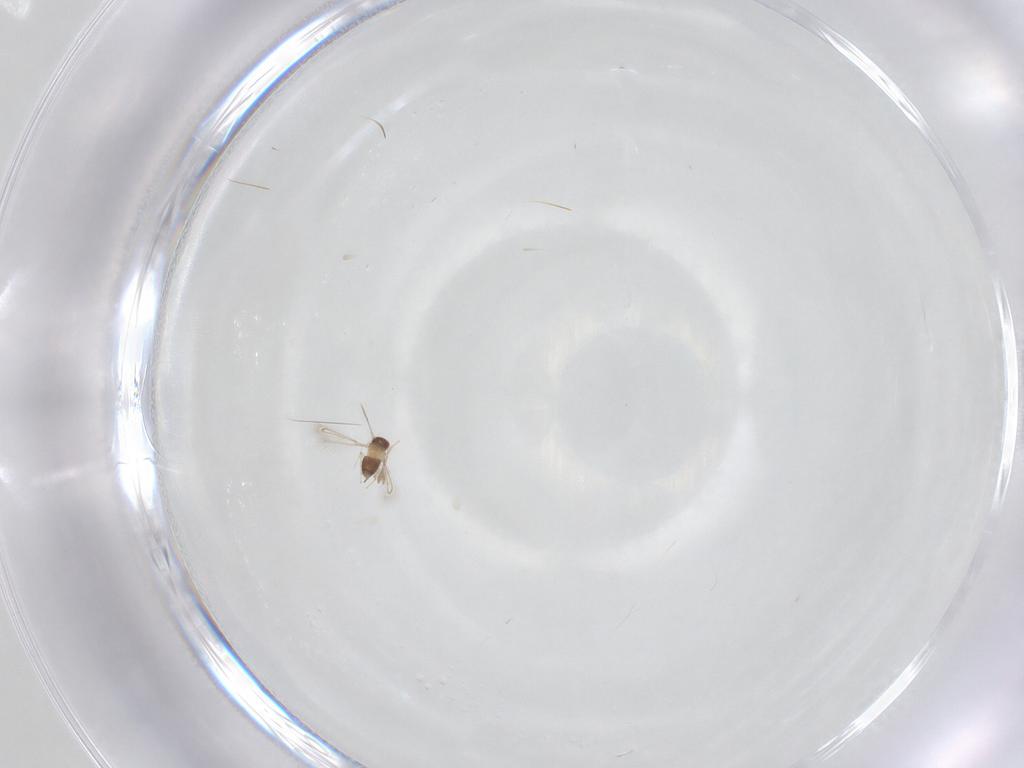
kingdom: Animalia
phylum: Arthropoda
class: Insecta
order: Hymenoptera
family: Mymaridae
